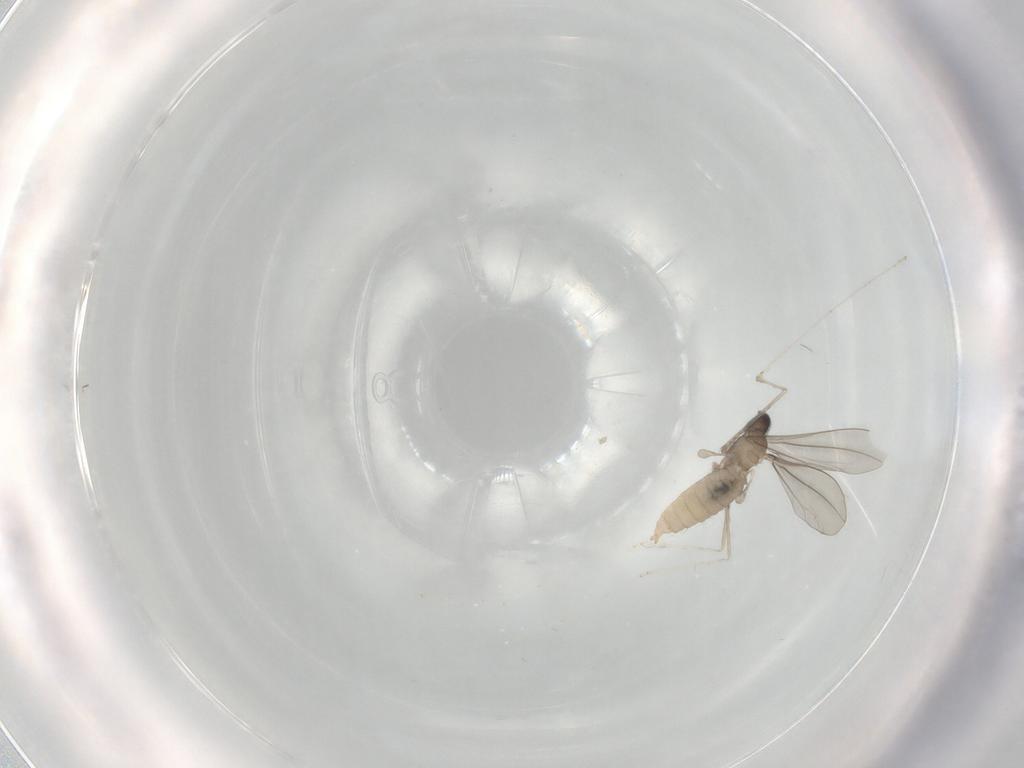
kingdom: Animalia
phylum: Arthropoda
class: Insecta
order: Diptera
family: Cecidomyiidae
